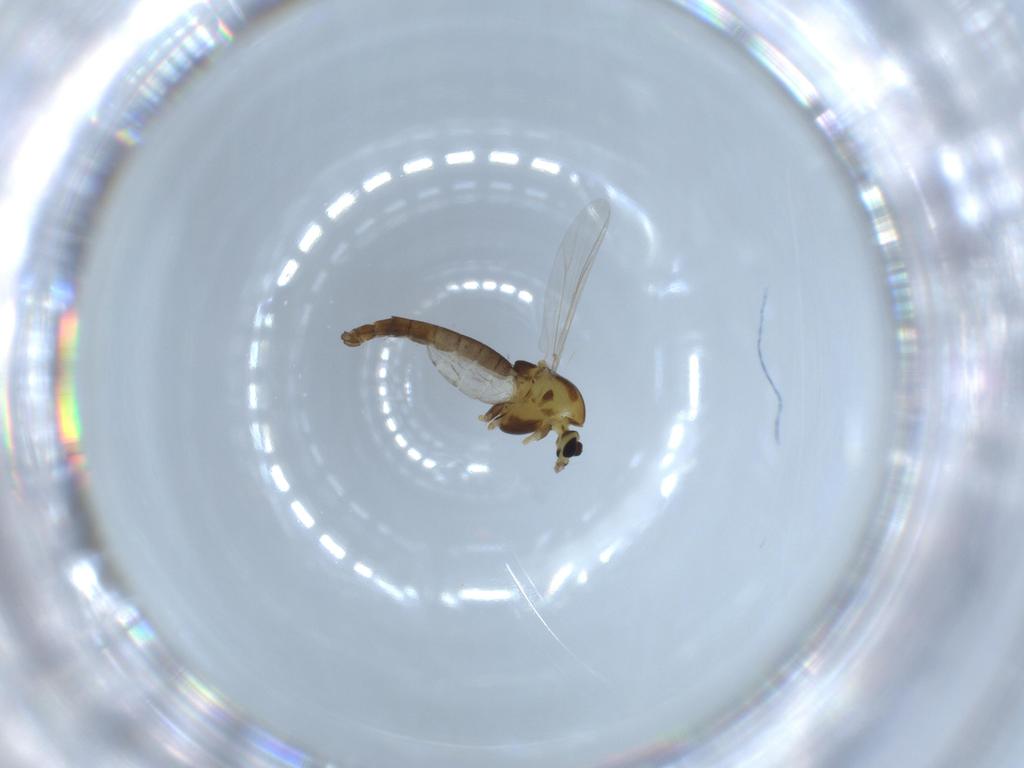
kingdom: Animalia
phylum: Arthropoda
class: Insecta
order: Diptera
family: Chironomidae
